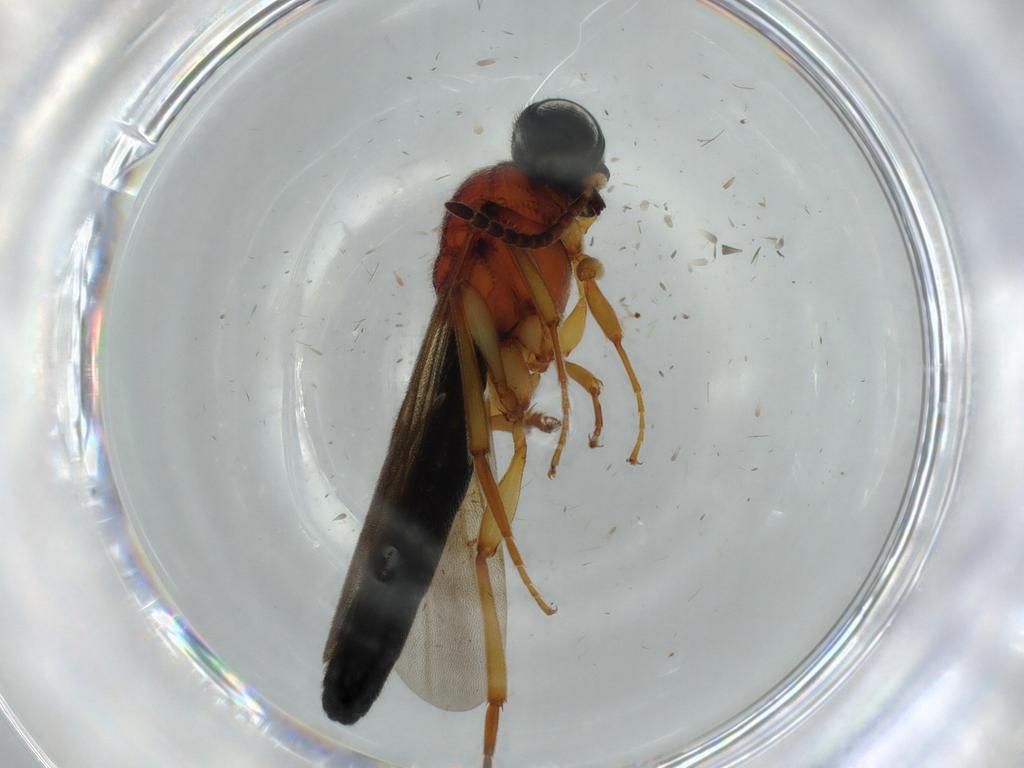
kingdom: Animalia
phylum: Arthropoda
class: Insecta
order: Hymenoptera
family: Scelionidae
